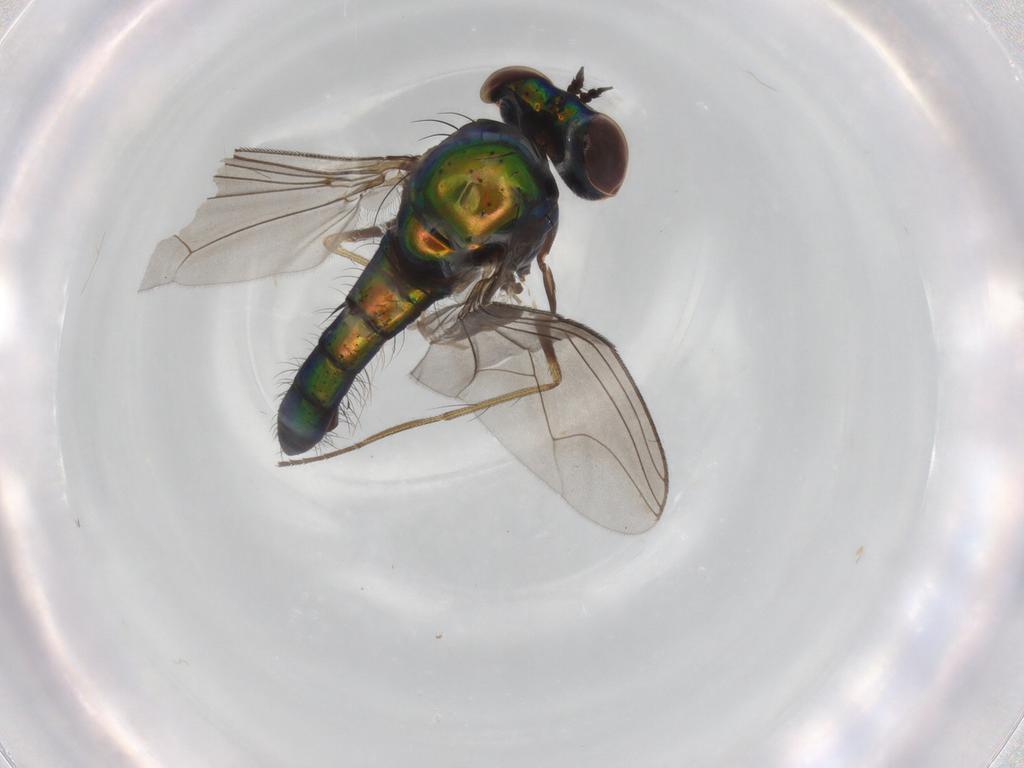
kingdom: Animalia
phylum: Arthropoda
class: Insecta
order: Diptera
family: Dolichopodidae
